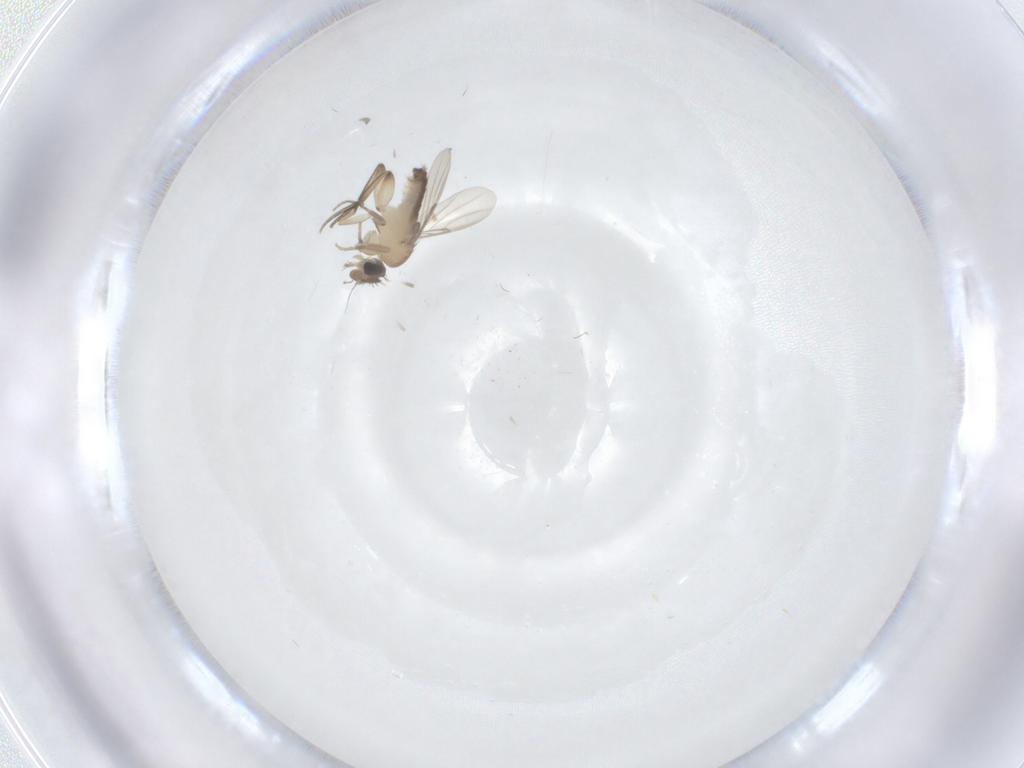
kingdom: Animalia
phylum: Arthropoda
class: Insecta
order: Diptera
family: Phoridae
